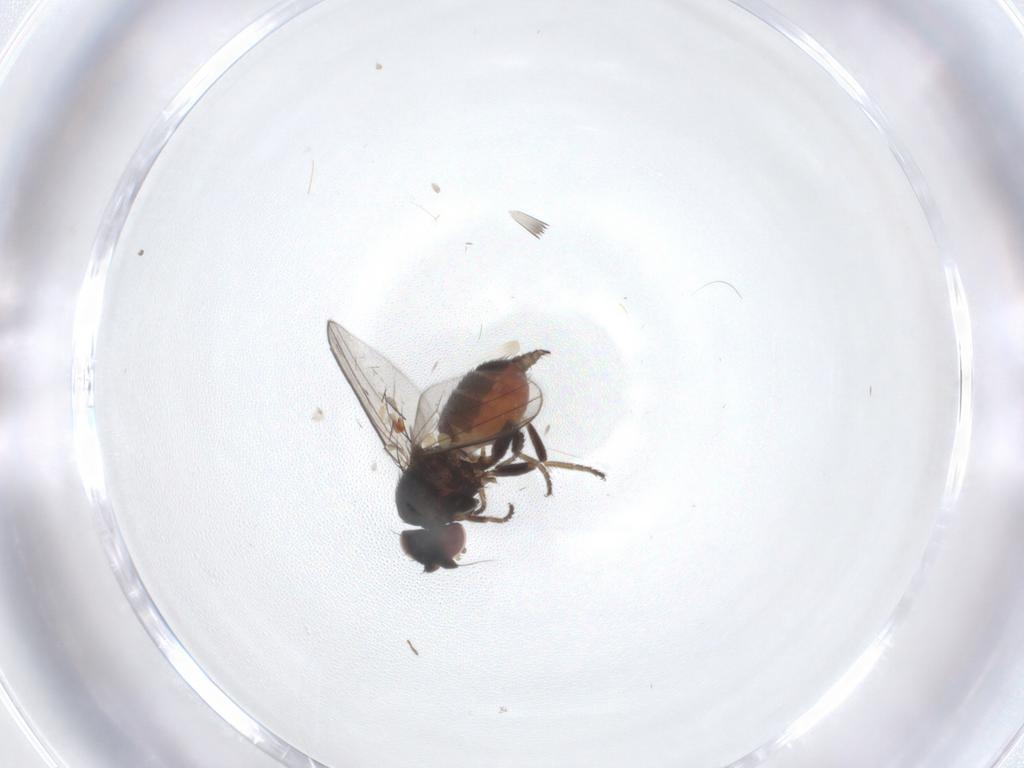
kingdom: Animalia
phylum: Arthropoda
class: Insecta
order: Diptera
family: Milichiidae
